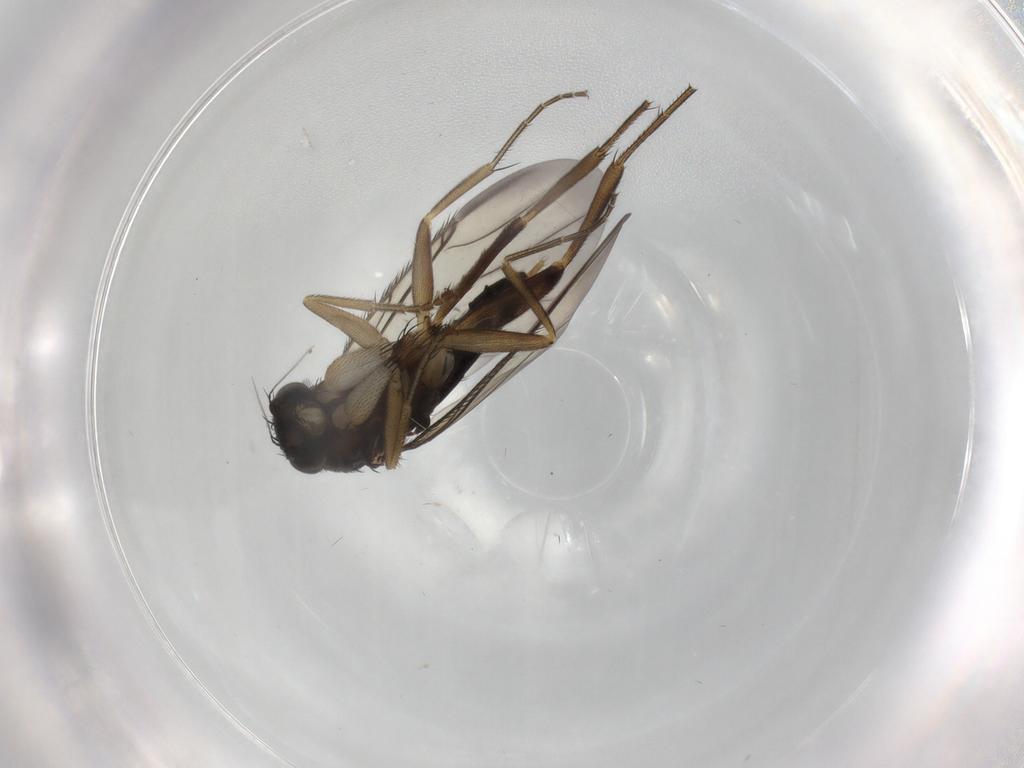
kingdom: Animalia
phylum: Arthropoda
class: Insecta
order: Diptera
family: Phoridae
